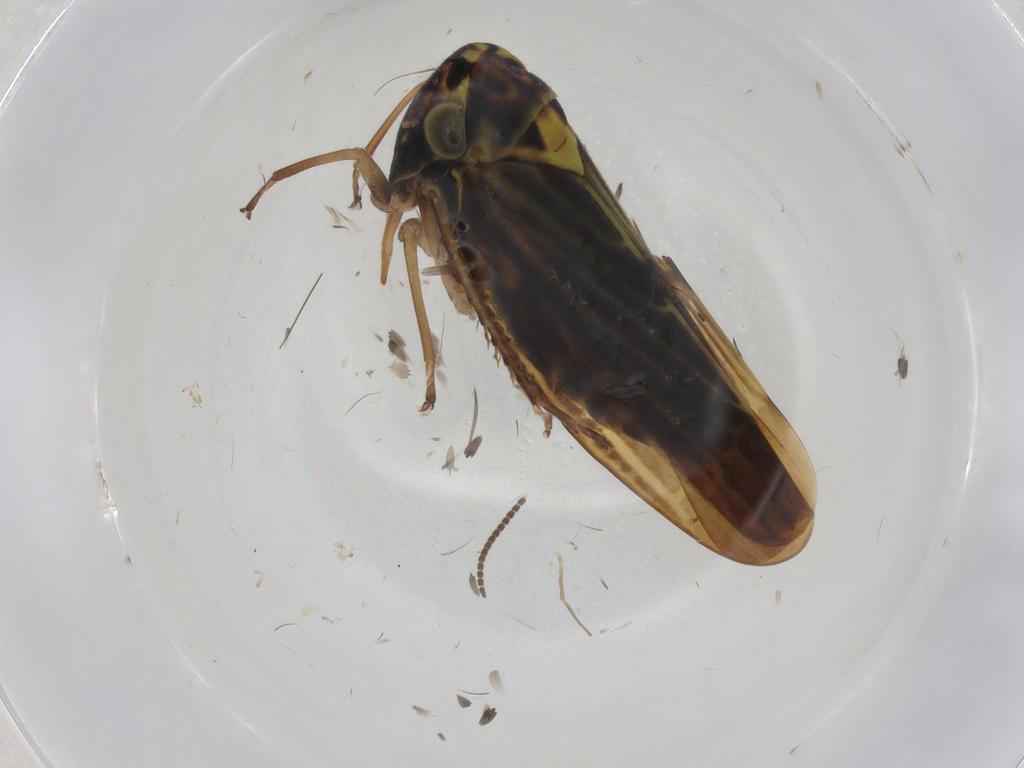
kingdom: Animalia
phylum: Arthropoda
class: Insecta
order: Hemiptera
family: Cicadellidae
